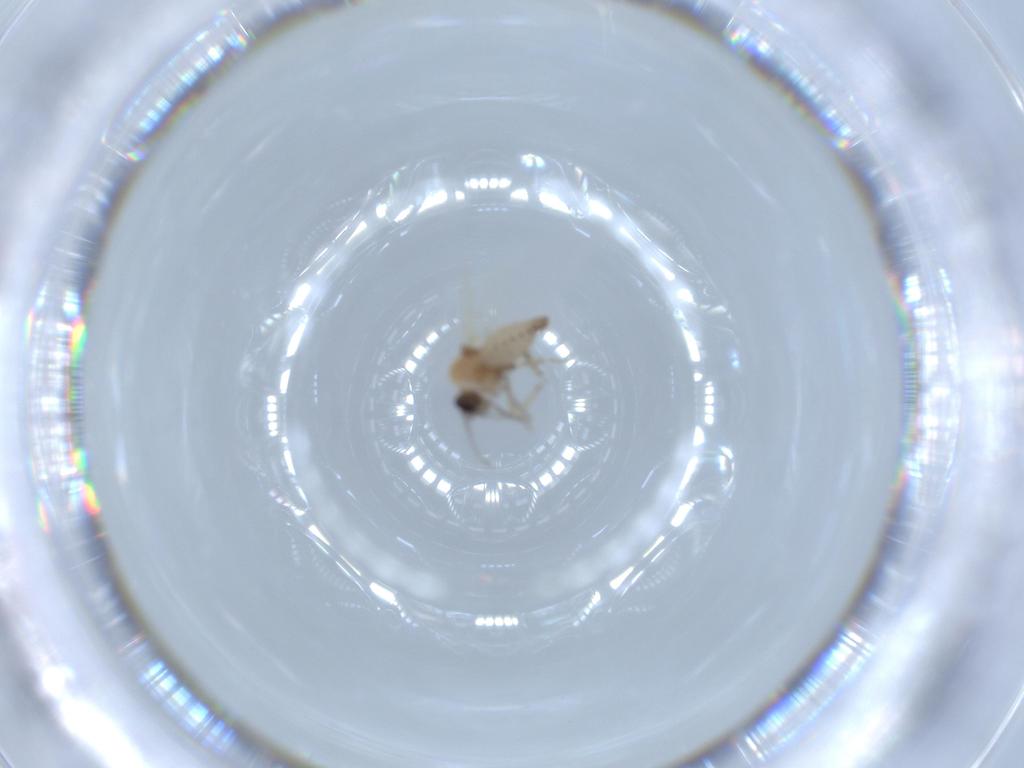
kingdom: Animalia
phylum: Arthropoda
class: Insecta
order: Diptera
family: Ceratopogonidae
